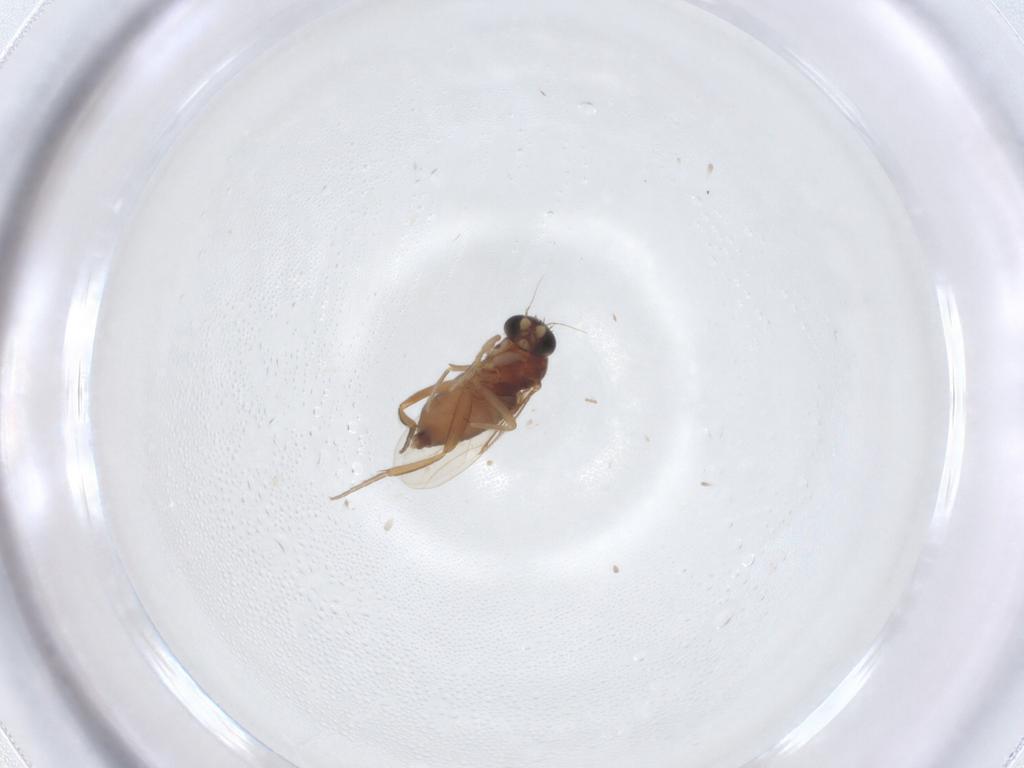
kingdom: Animalia
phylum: Arthropoda
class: Insecta
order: Diptera
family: Phoridae
